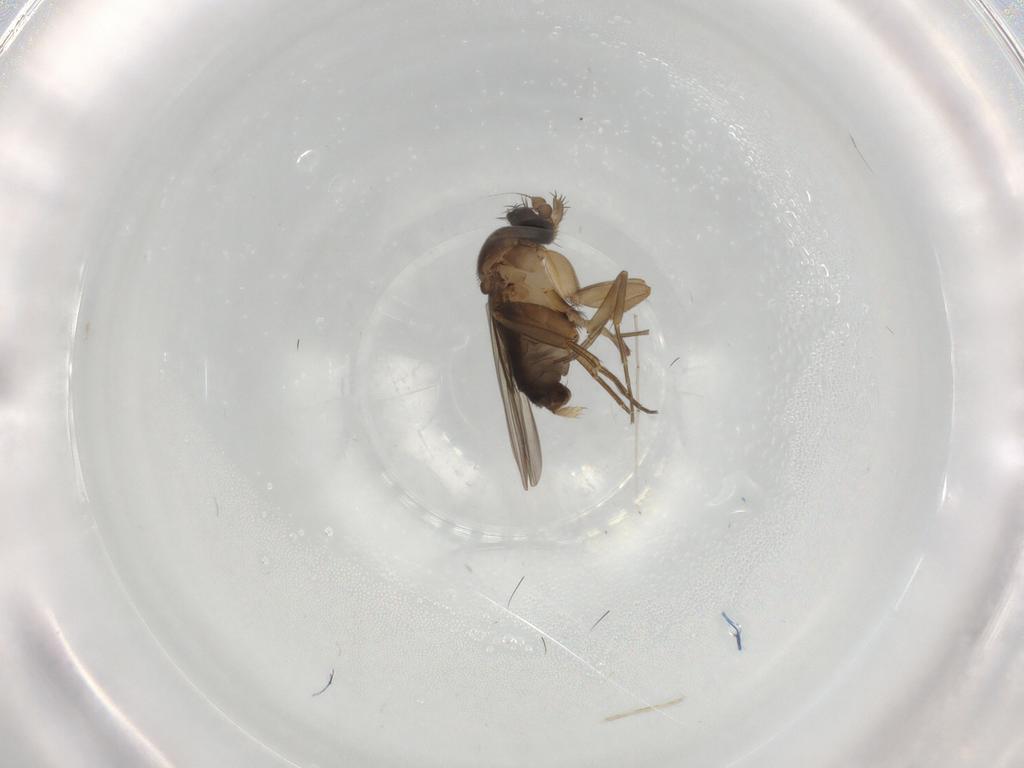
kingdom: Animalia
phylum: Arthropoda
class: Insecta
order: Diptera
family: Phoridae
